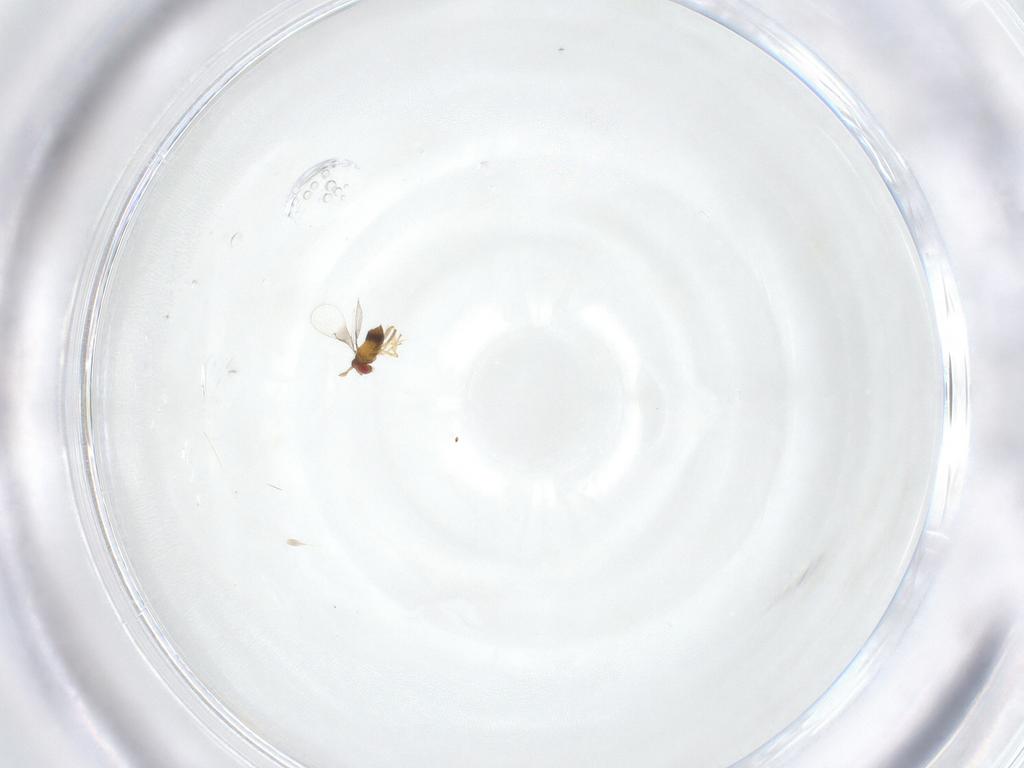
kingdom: Animalia
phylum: Arthropoda
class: Insecta
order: Hymenoptera
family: Trichogrammatidae
